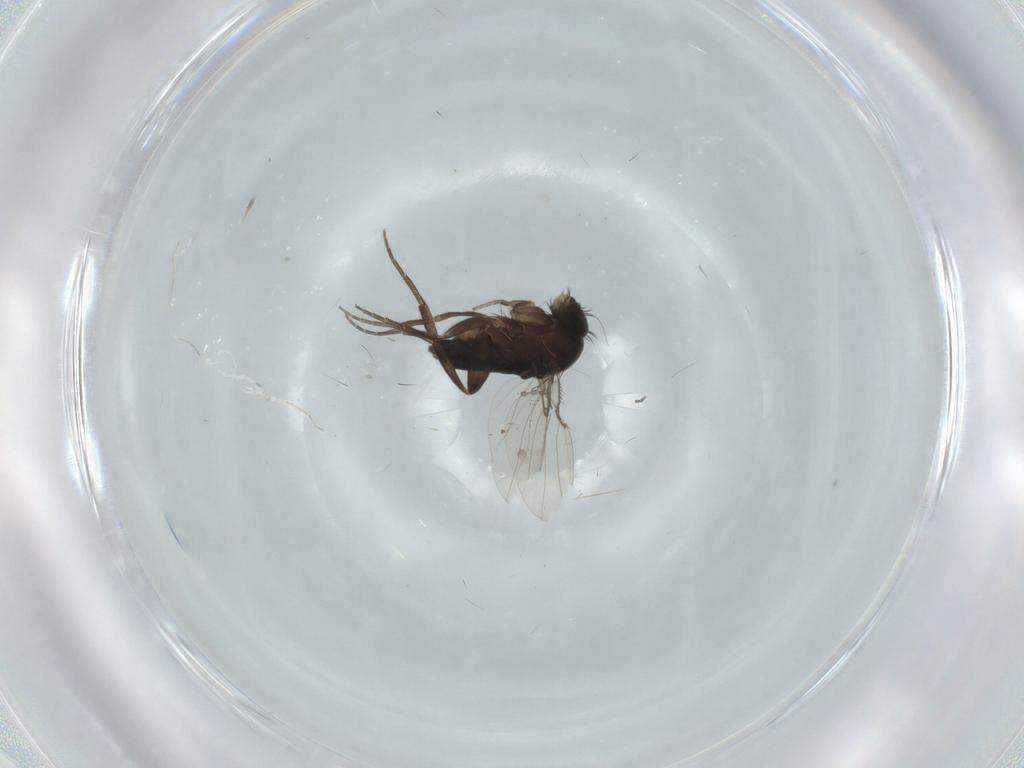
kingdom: Animalia
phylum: Arthropoda
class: Insecta
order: Diptera
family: Phoridae
